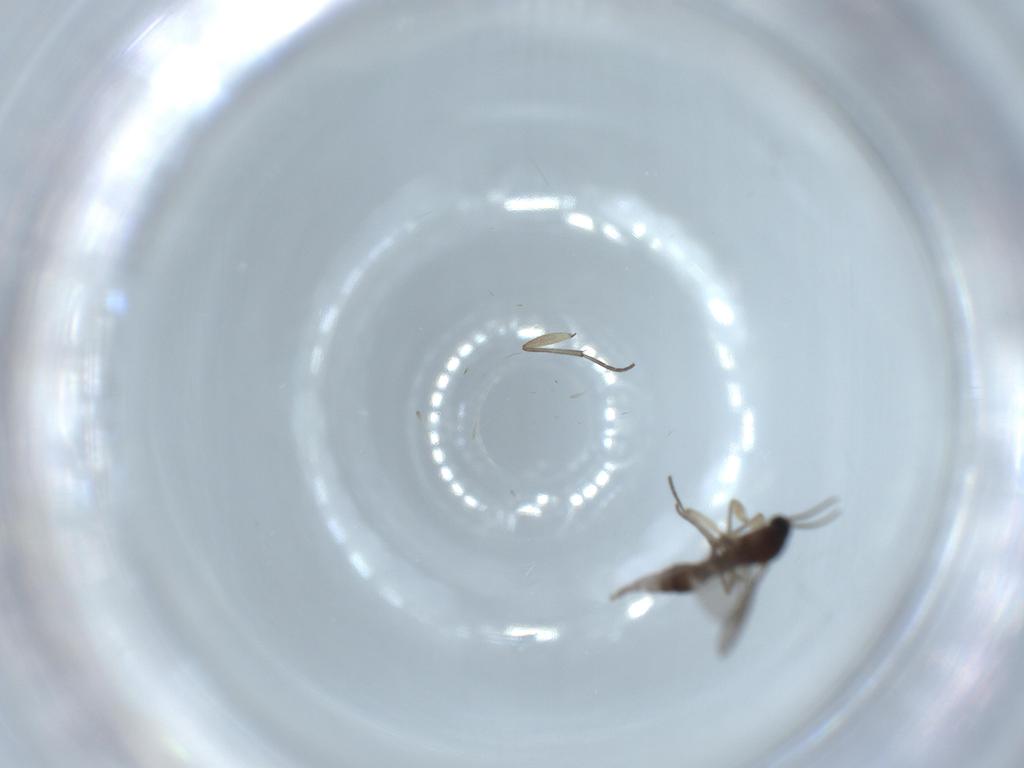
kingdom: Animalia
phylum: Arthropoda
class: Insecta
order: Diptera
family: Sciaridae
